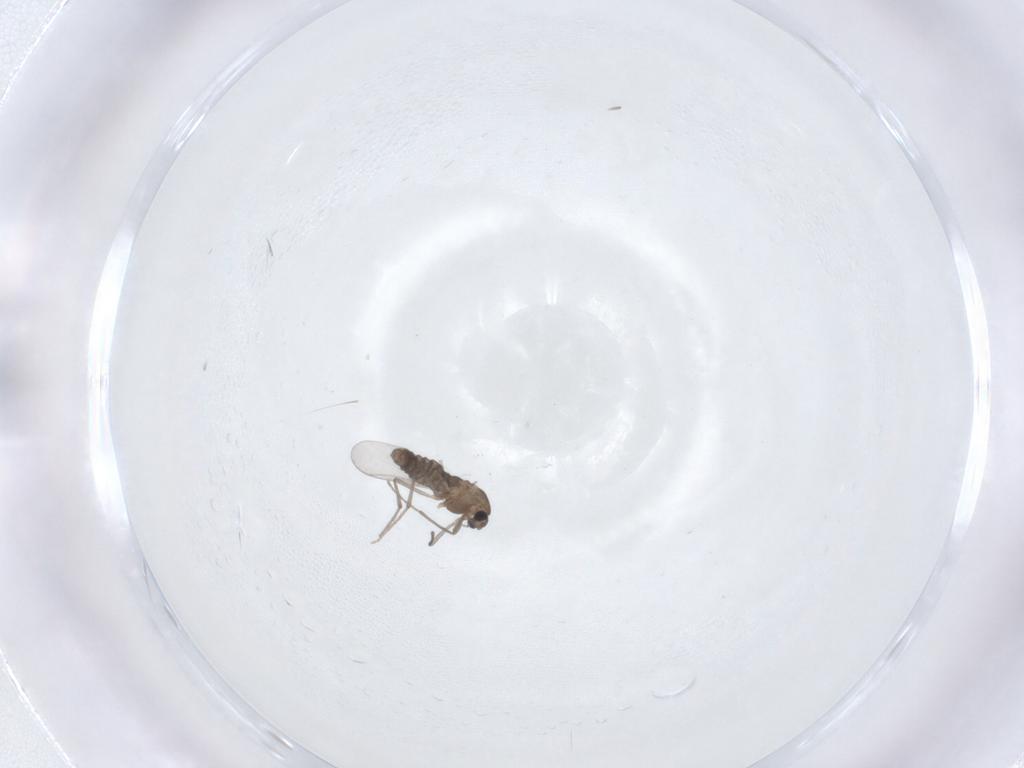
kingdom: Animalia
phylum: Arthropoda
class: Insecta
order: Diptera
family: Chironomidae
